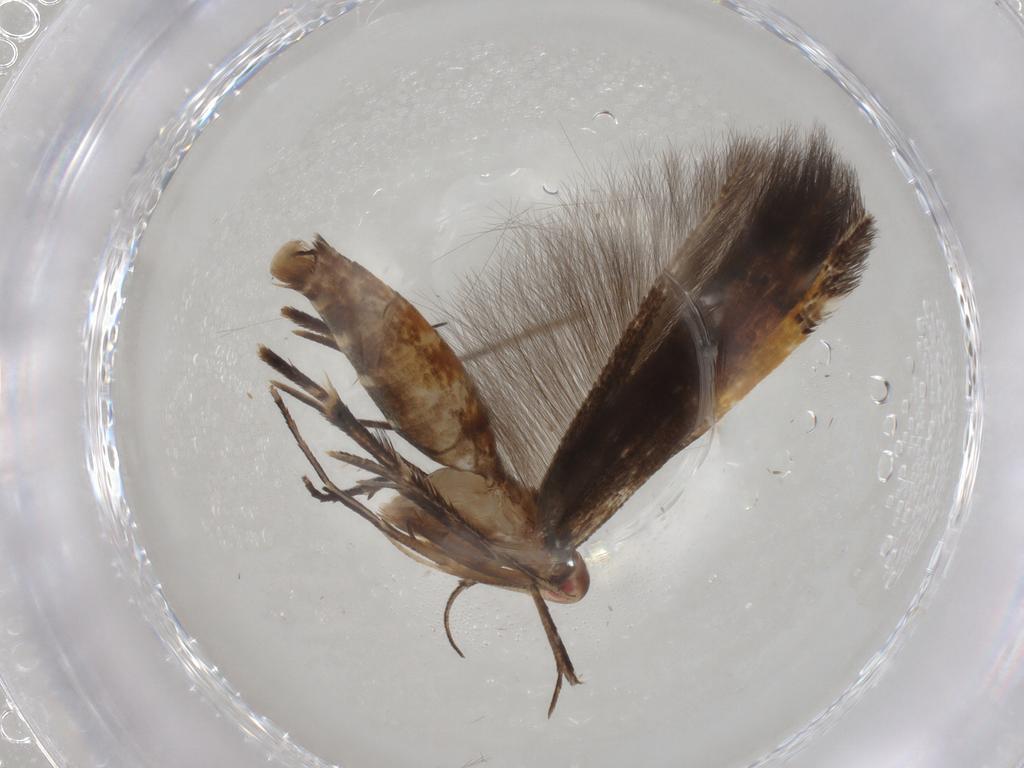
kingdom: Animalia
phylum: Arthropoda
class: Insecta
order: Lepidoptera
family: Cosmopterigidae
